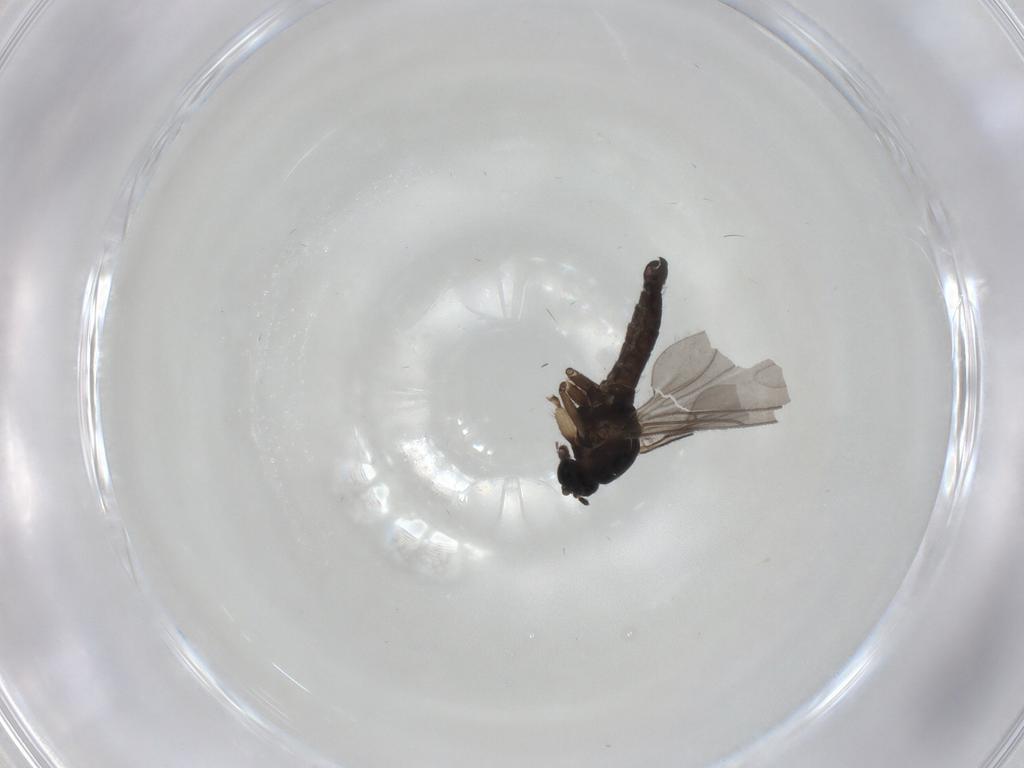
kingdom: Animalia
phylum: Arthropoda
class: Insecta
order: Diptera
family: Sciaridae
